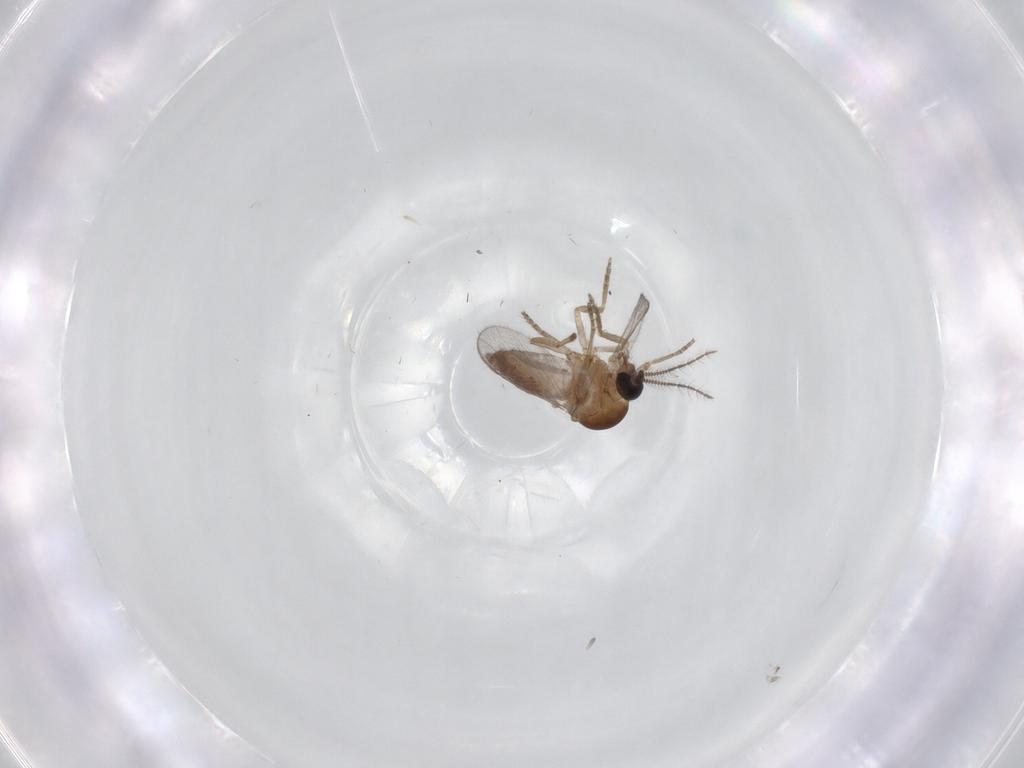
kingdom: Animalia
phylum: Arthropoda
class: Insecta
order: Diptera
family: Ceratopogonidae
